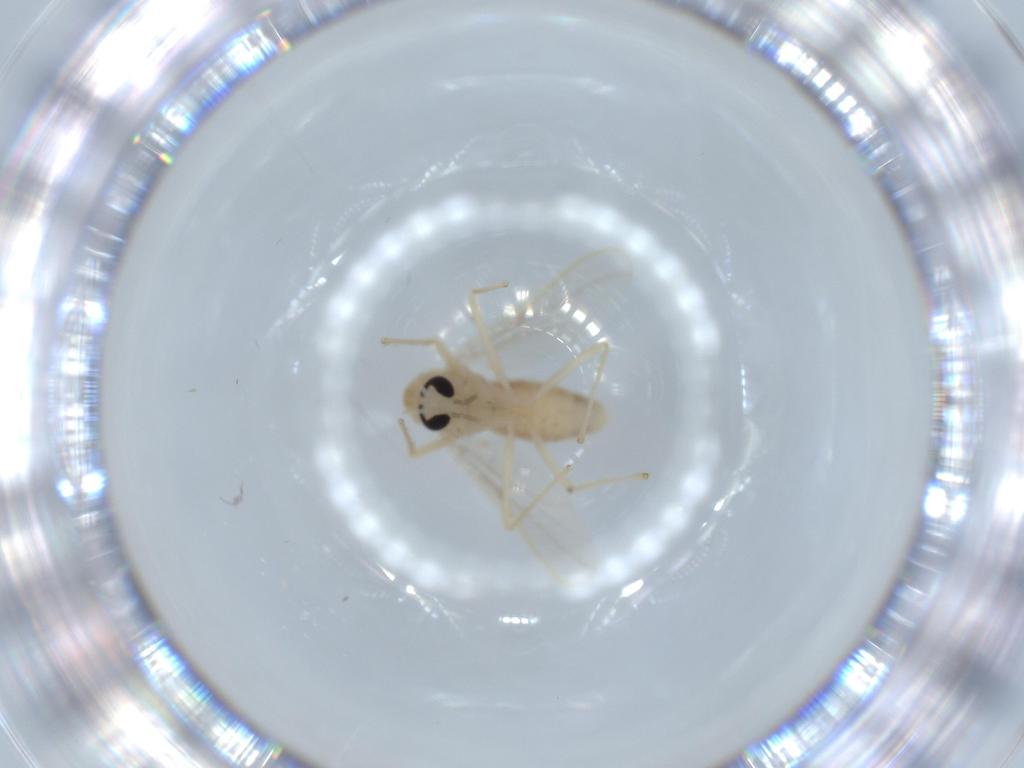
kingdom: Animalia
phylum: Arthropoda
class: Insecta
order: Diptera
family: Chironomidae
